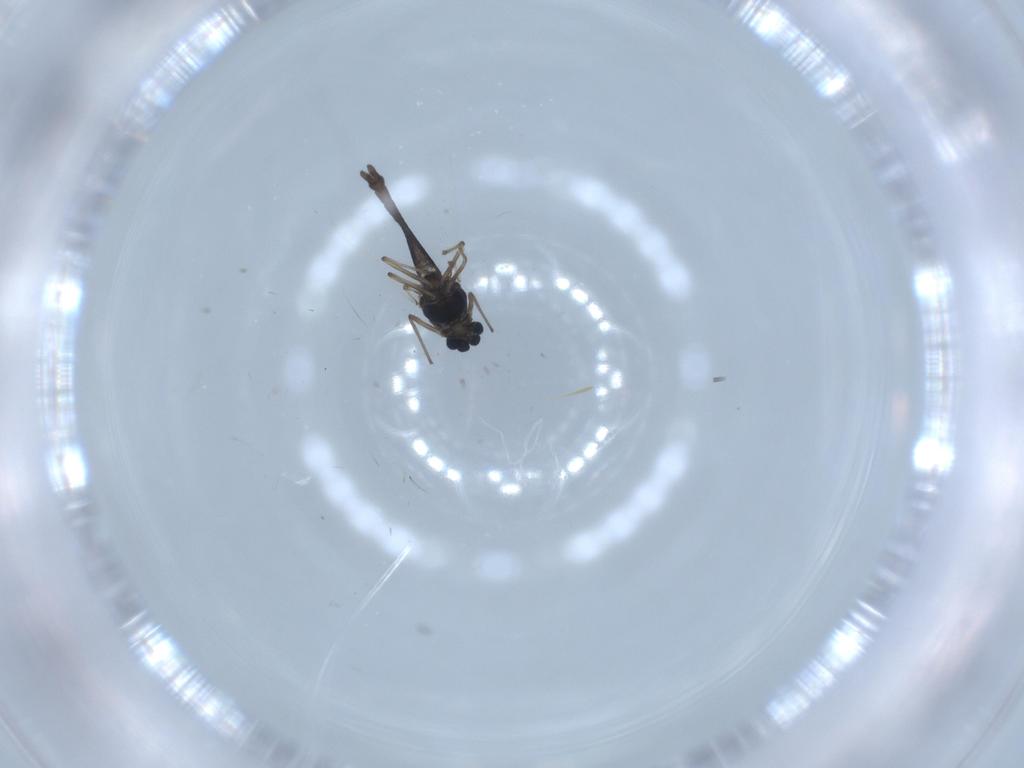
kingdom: Animalia
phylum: Arthropoda
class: Insecta
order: Diptera
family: Chironomidae
